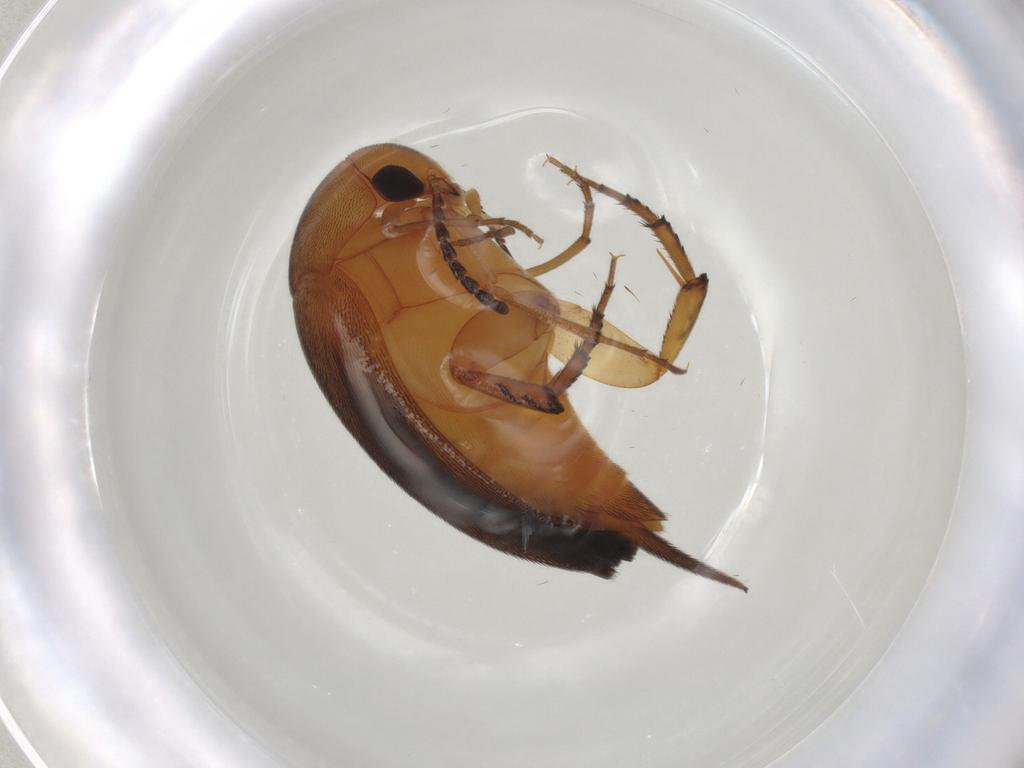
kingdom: Animalia
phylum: Arthropoda
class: Insecta
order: Coleoptera
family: Mordellidae
